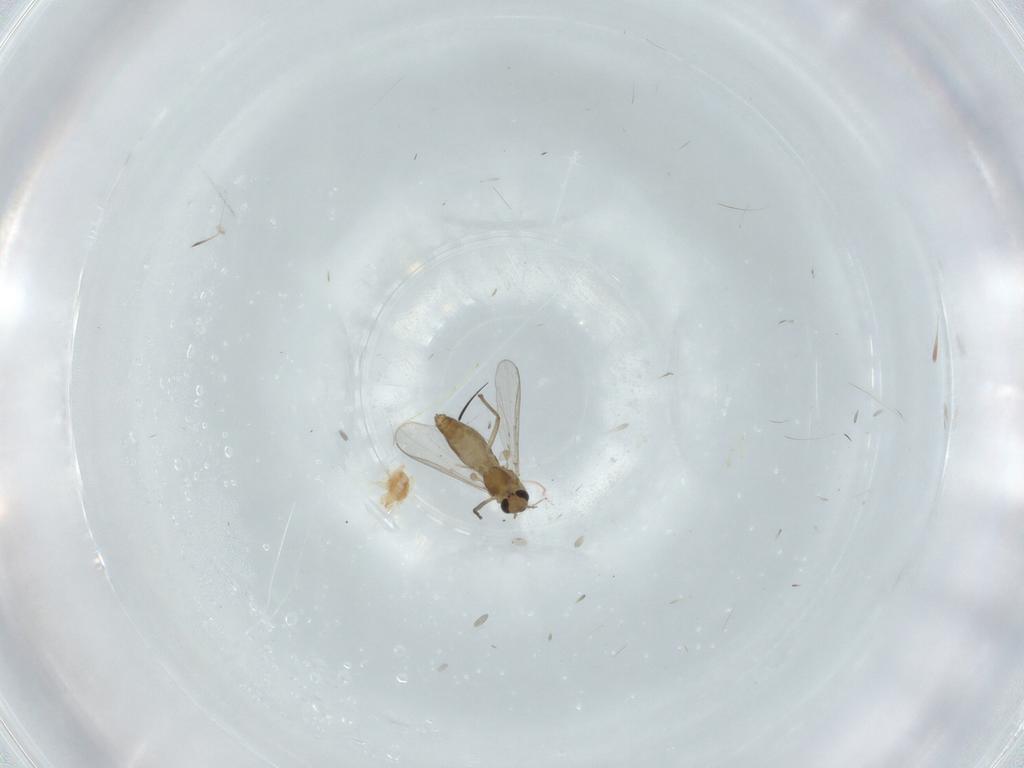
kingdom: Animalia
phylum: Arthropoda
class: Insecta
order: Diptera
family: Chironomidae
